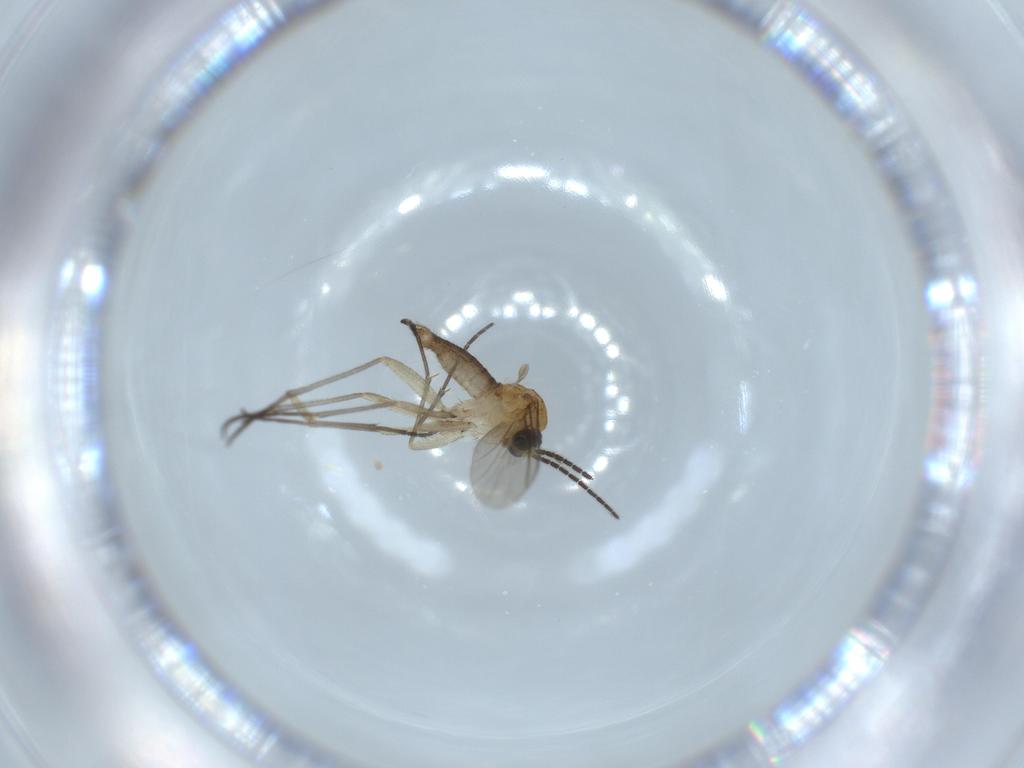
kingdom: Animalia
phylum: Arthropoda
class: Insecta
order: Diptera
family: Sciaridae
